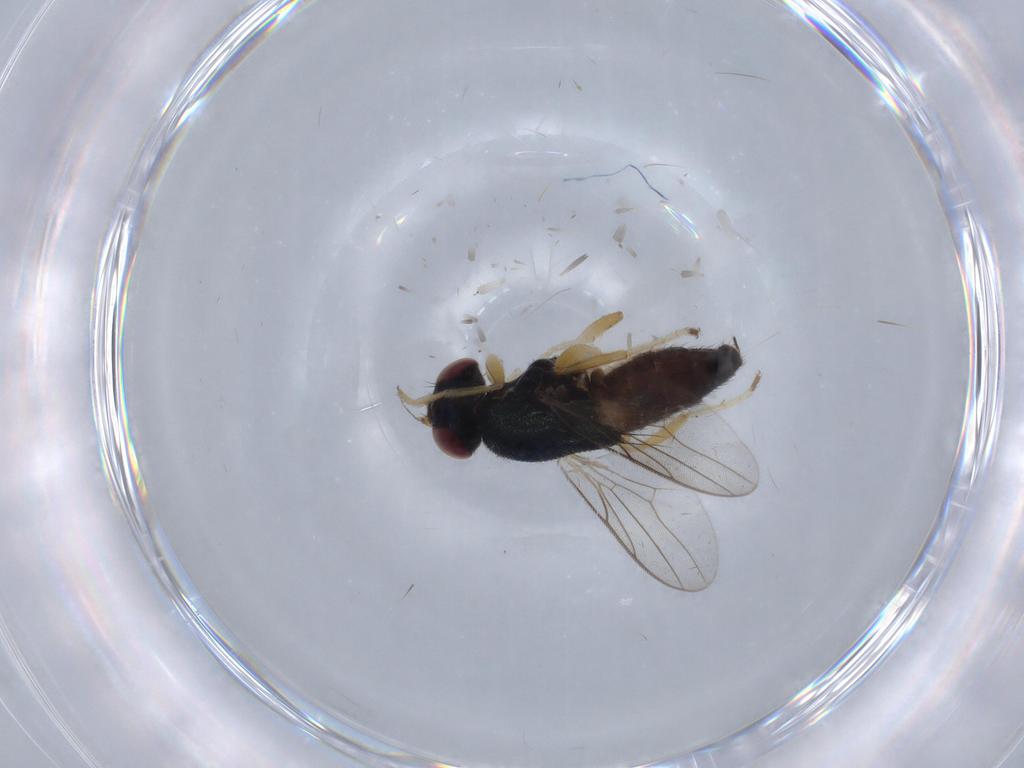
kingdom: Animalia
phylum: Arthropoda
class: Insecta
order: Diptera
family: Chloropidae
